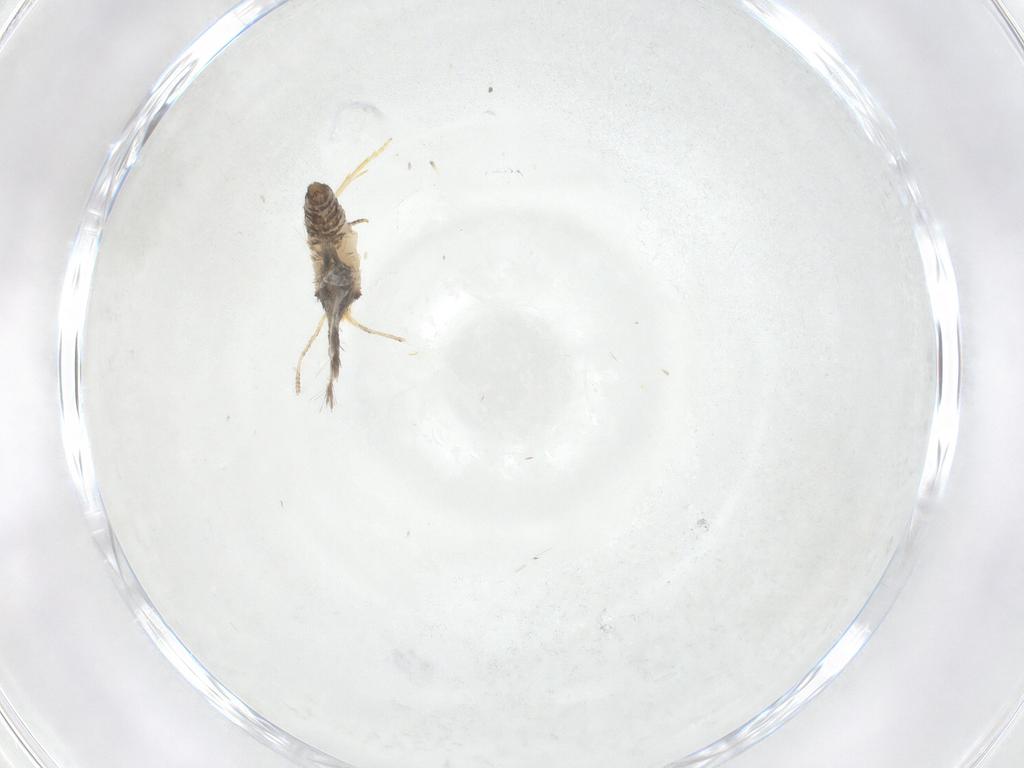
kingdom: Animalia
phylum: Arthropoda
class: Insecta
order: Lepidoptera
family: Nepticulidae
